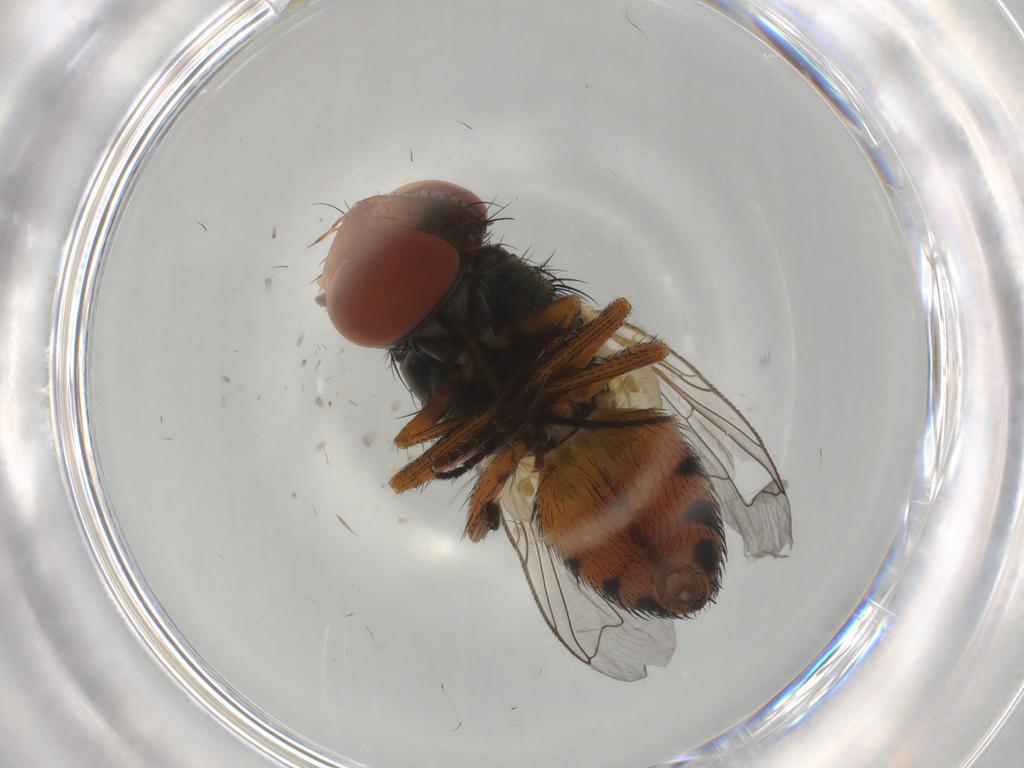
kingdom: Animalia
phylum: Arthropoda
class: Insecta
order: Diptera
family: Sarcophagidae
